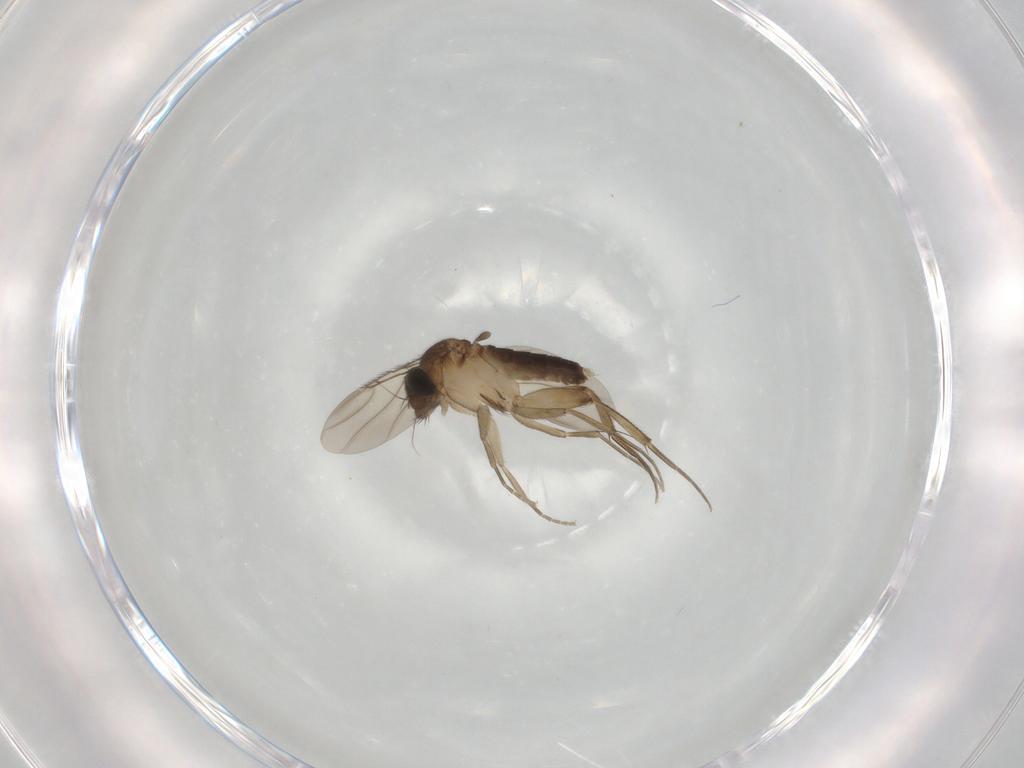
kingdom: Animalia
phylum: Arthropoda
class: Insecta
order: Diptera
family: Phoridae
